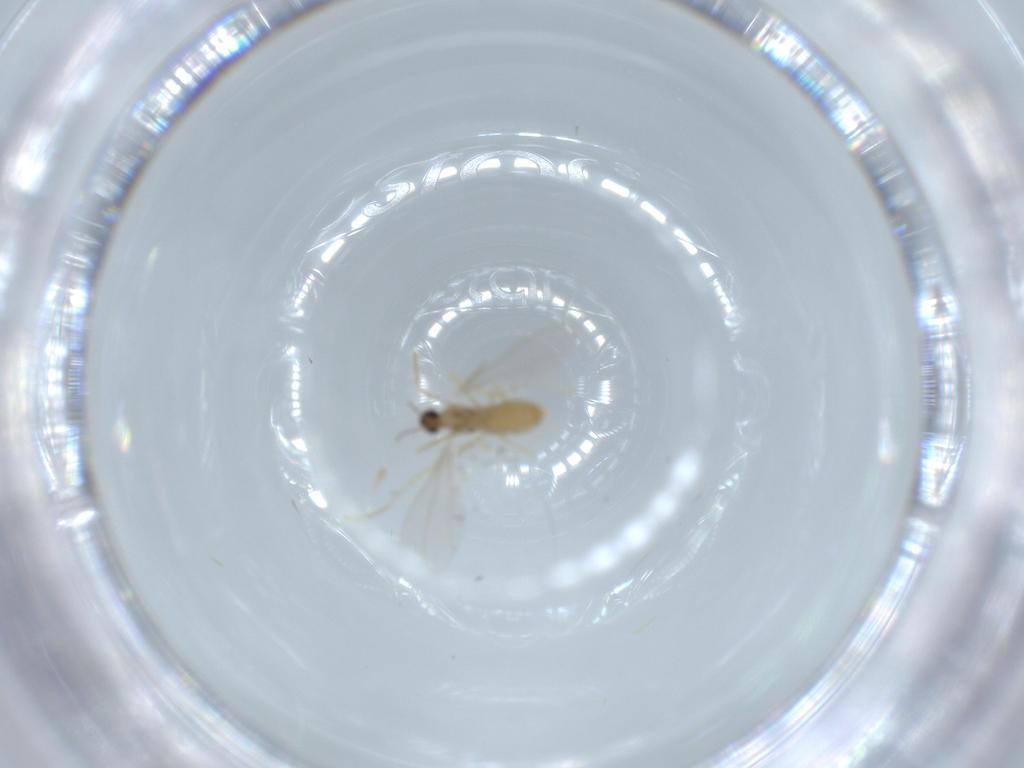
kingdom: Animalia
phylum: Arthropoda
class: Insecta
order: Diptera
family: Cecidomyiidae
